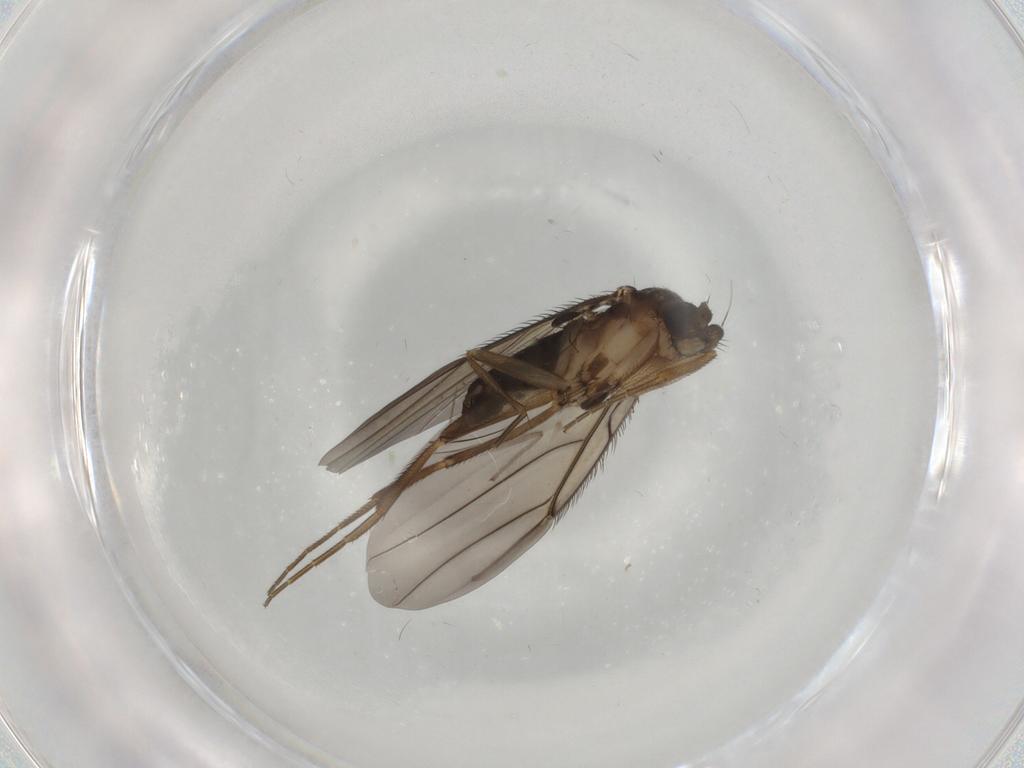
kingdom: Animalia
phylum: Arthropoda
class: Insecta
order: Diptera
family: Phoridae
